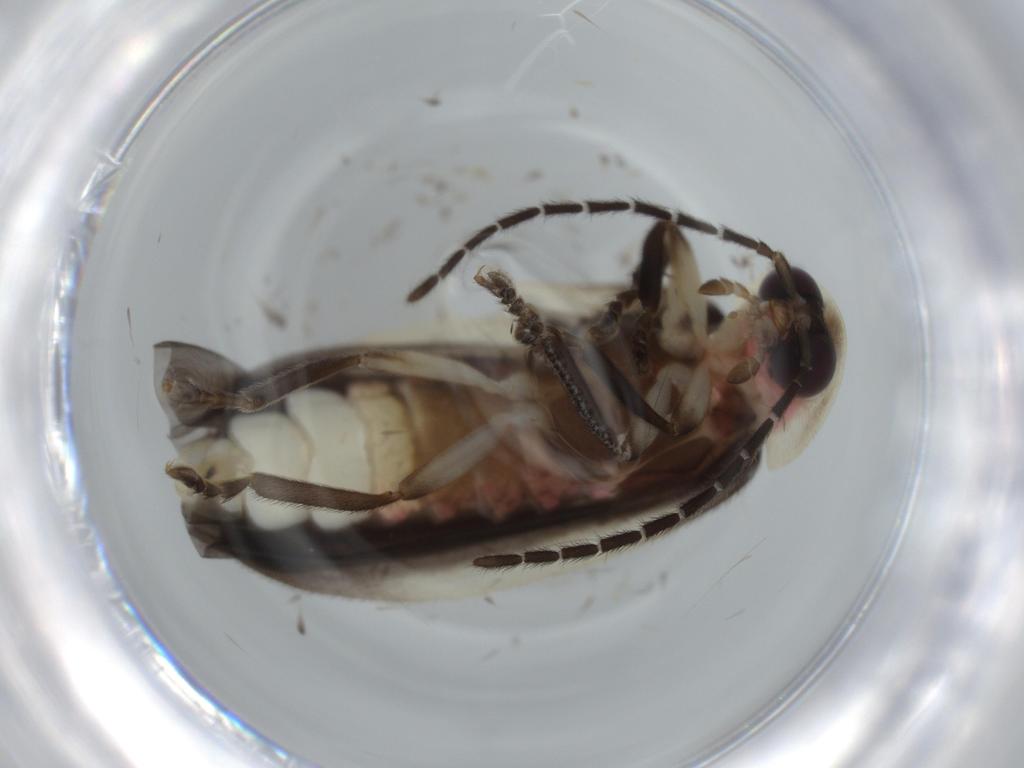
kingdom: Animalia
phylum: Arthropoda
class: Insecta
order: Coleoptera
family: Lampyridae
